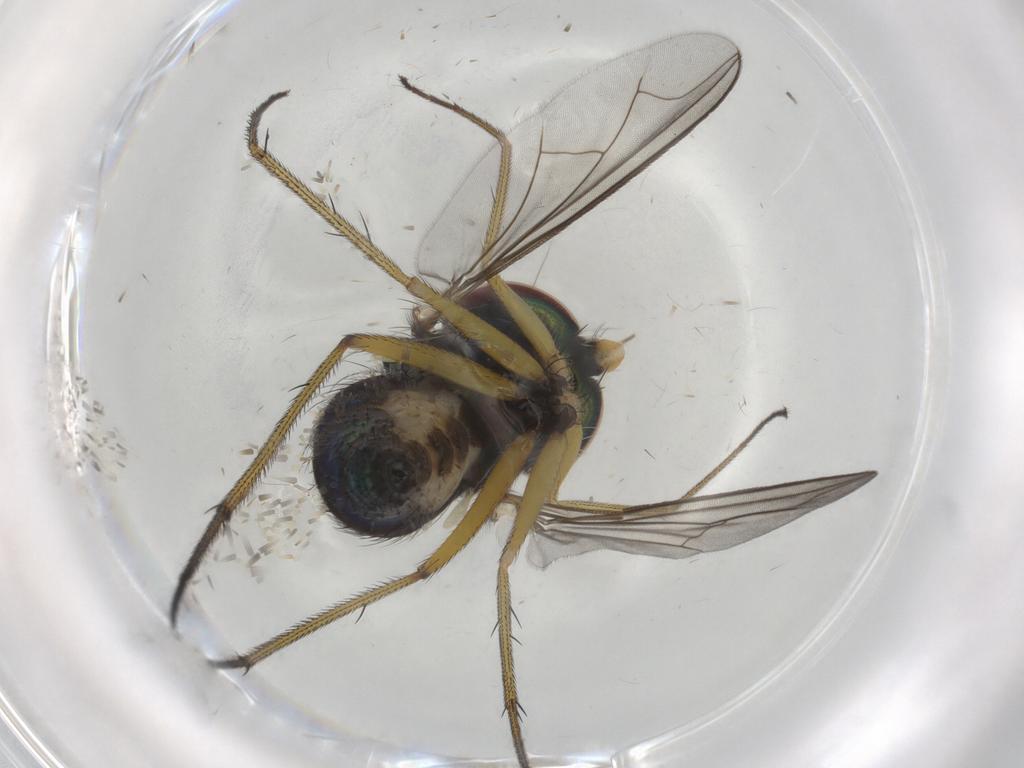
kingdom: Animalia
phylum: Arthropoda
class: Insecta
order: Diptera
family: Dolichopodidae
